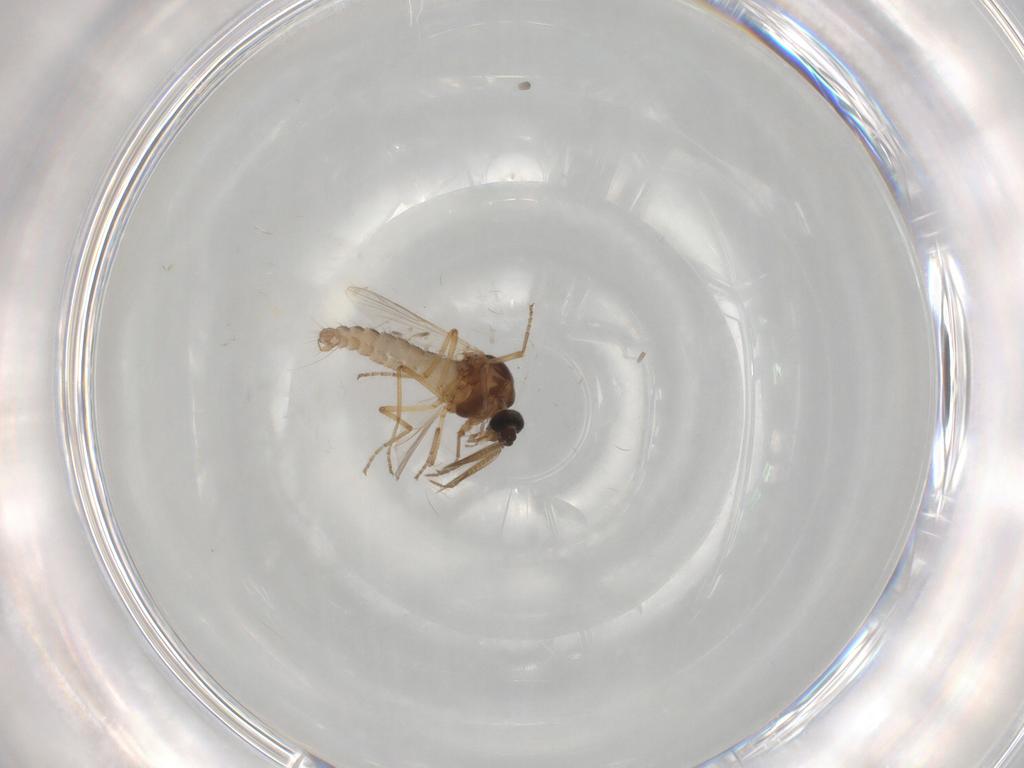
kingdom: Animalia
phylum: Arthropoda
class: Insecta
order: Diptera
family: Ceratopogonidae
